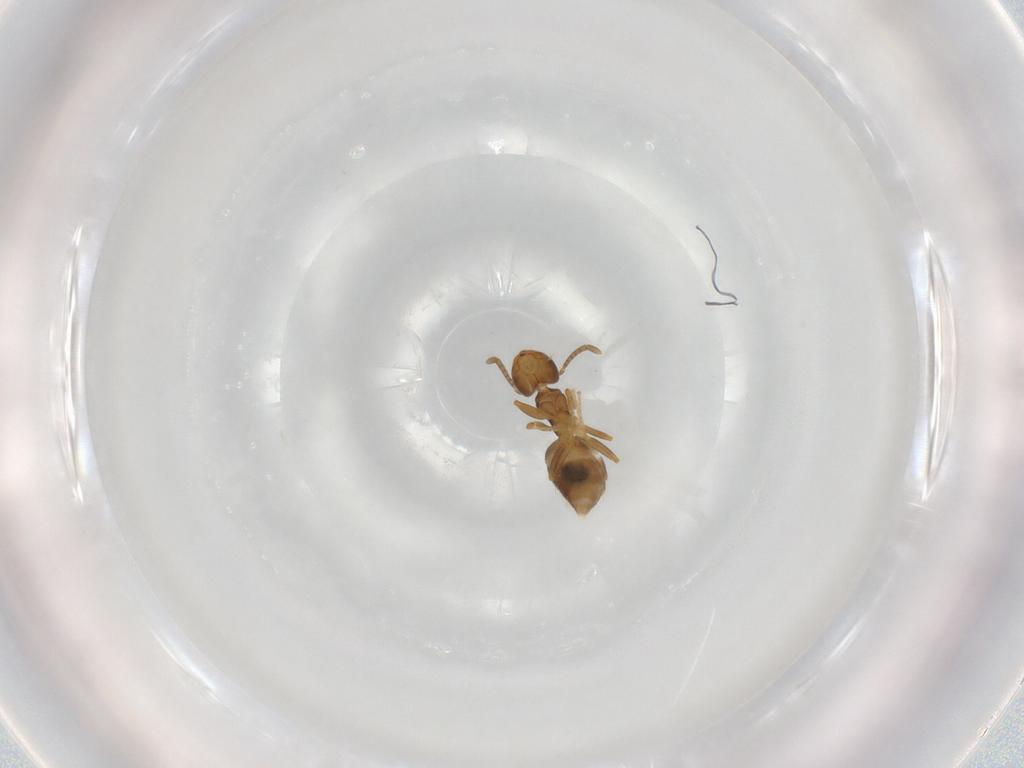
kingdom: Animalia
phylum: Arthropoda
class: Insecta
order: Hymenoptera
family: Formicidae
